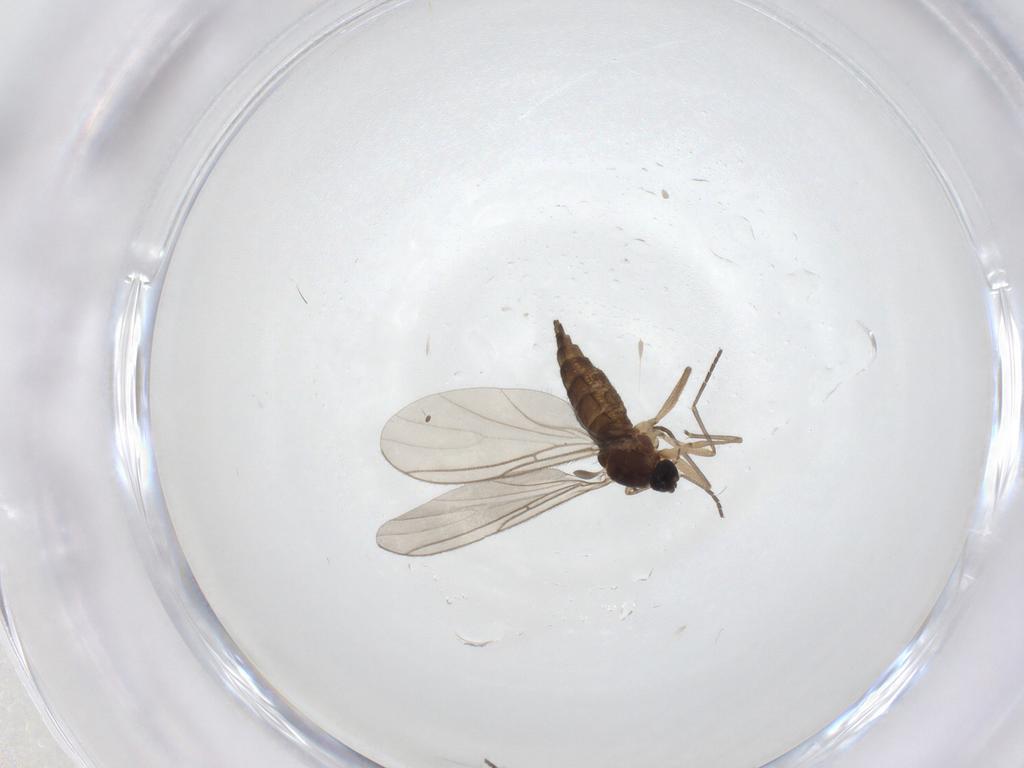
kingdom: Animalia
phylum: Arthropoda
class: Insecta
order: Diptera
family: Sciaridae
